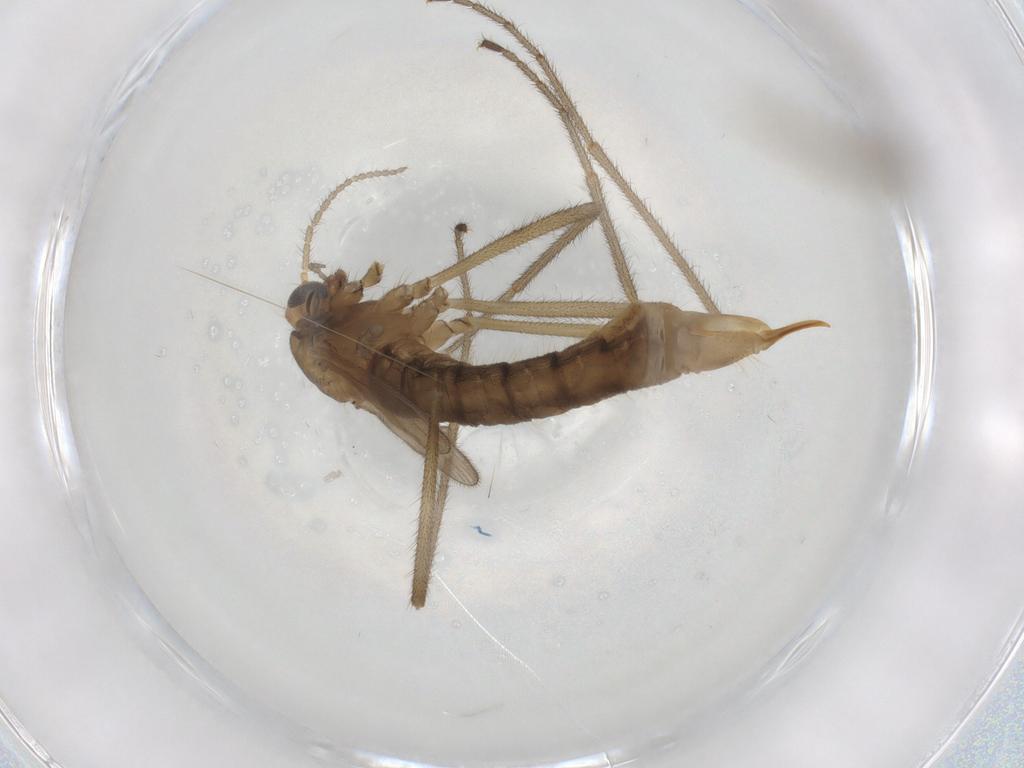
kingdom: Animalia
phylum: Arthropoda
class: Insecta
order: Diptera
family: Limoniidae
